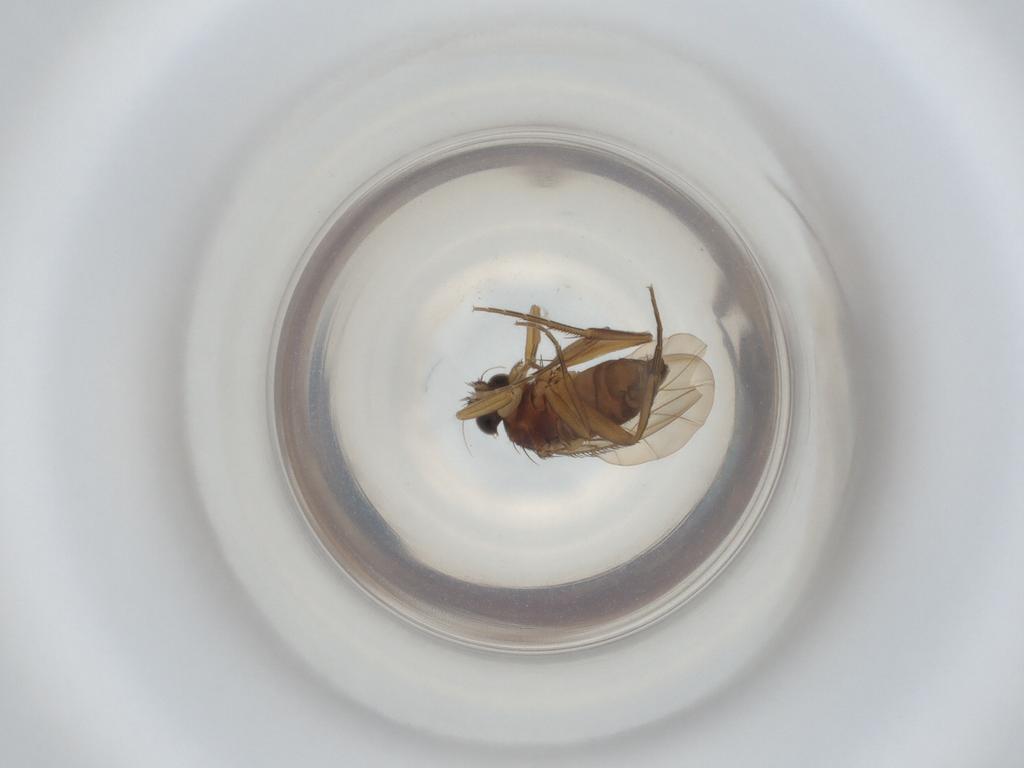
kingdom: Animalia
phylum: Arthropoda
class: Insecta
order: Diptera
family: Phoridae
